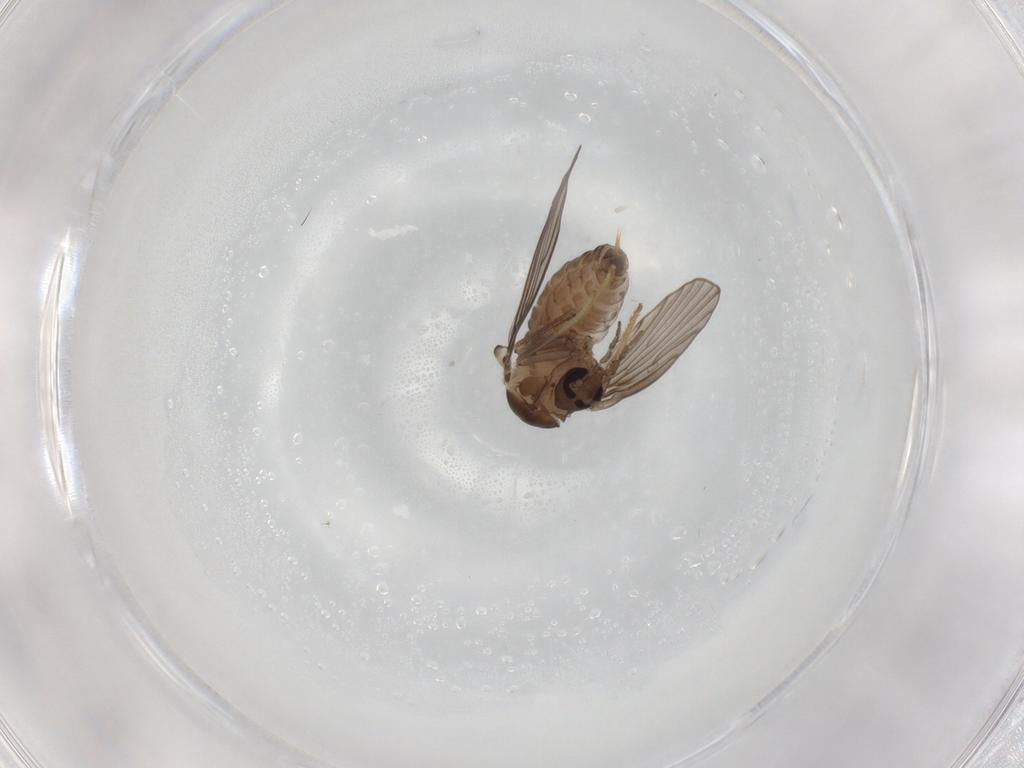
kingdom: Animalia
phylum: Arthropoda
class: Insecta
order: Diptera
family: Psychodidae
